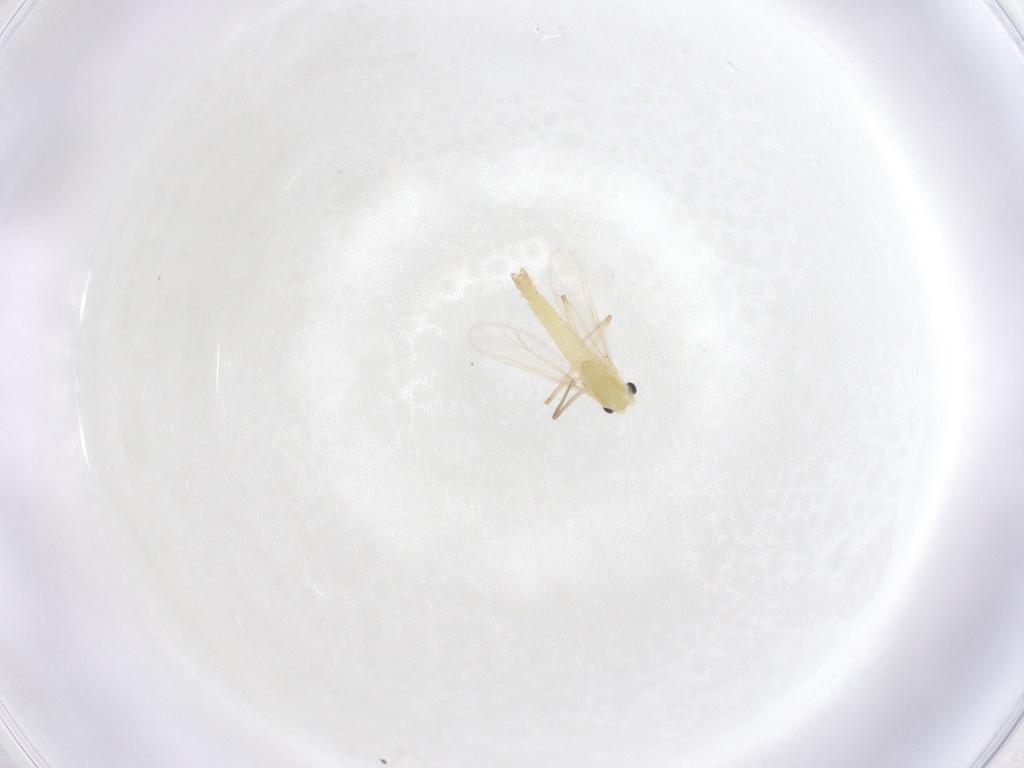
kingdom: Animalia
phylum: Arthropoda
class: Insecta
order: Diptera
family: Chironomidae
